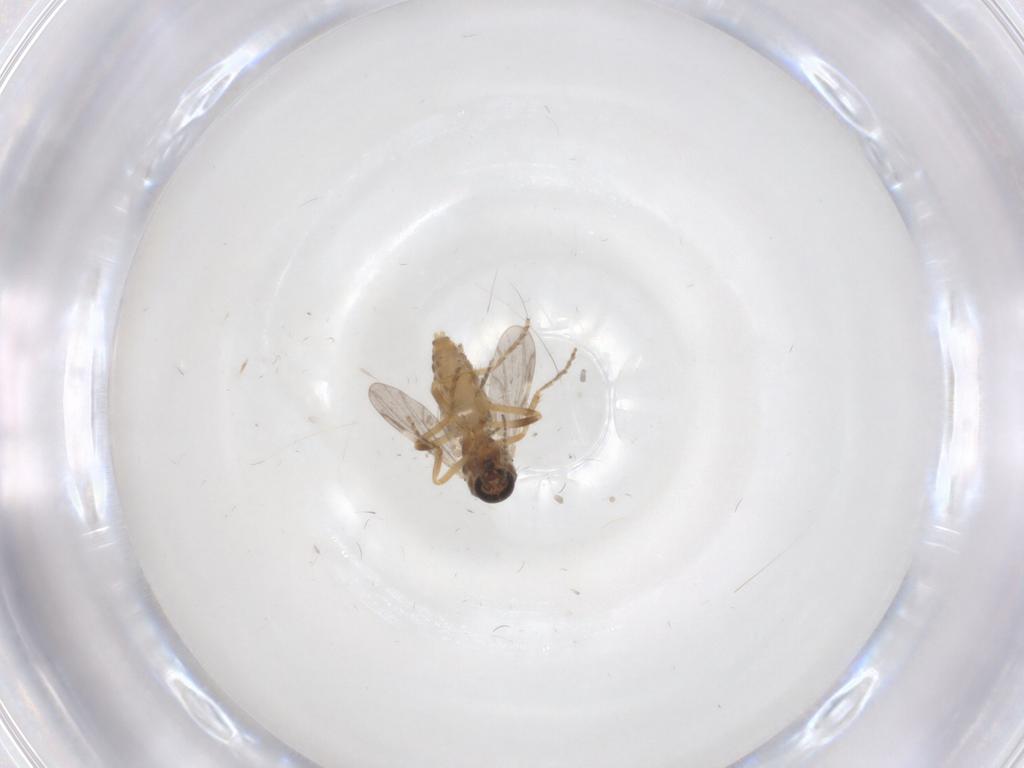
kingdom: Animalia
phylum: Arthropoda
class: Insecta
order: Diptera
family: Ceratopogonidae
